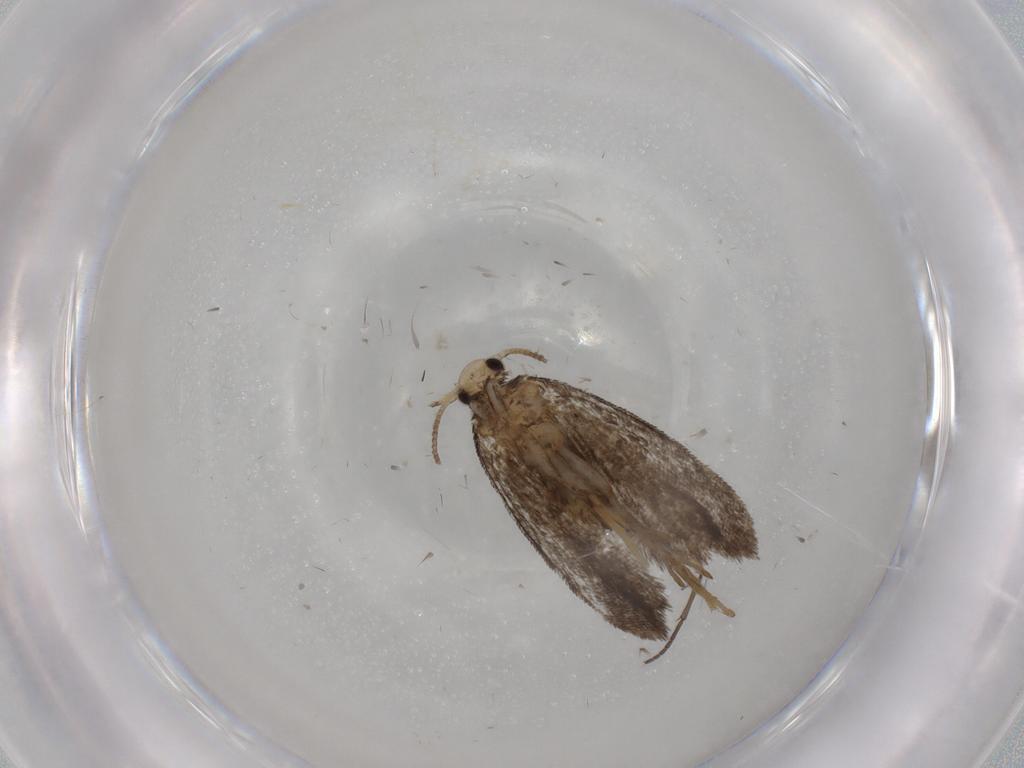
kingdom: Animalia
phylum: Arthropoda
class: Insecta
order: Lepidoptera
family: Psychidae
